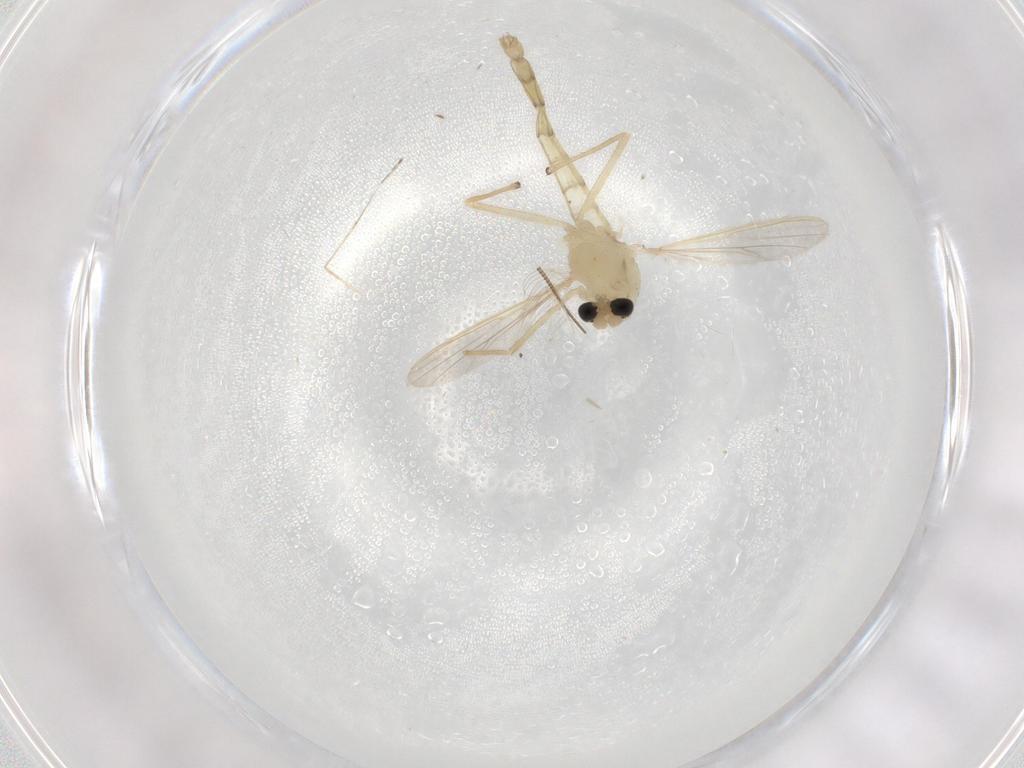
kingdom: Animalia
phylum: Arthropoda
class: Insecta
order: Diptera
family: Chironomidae
